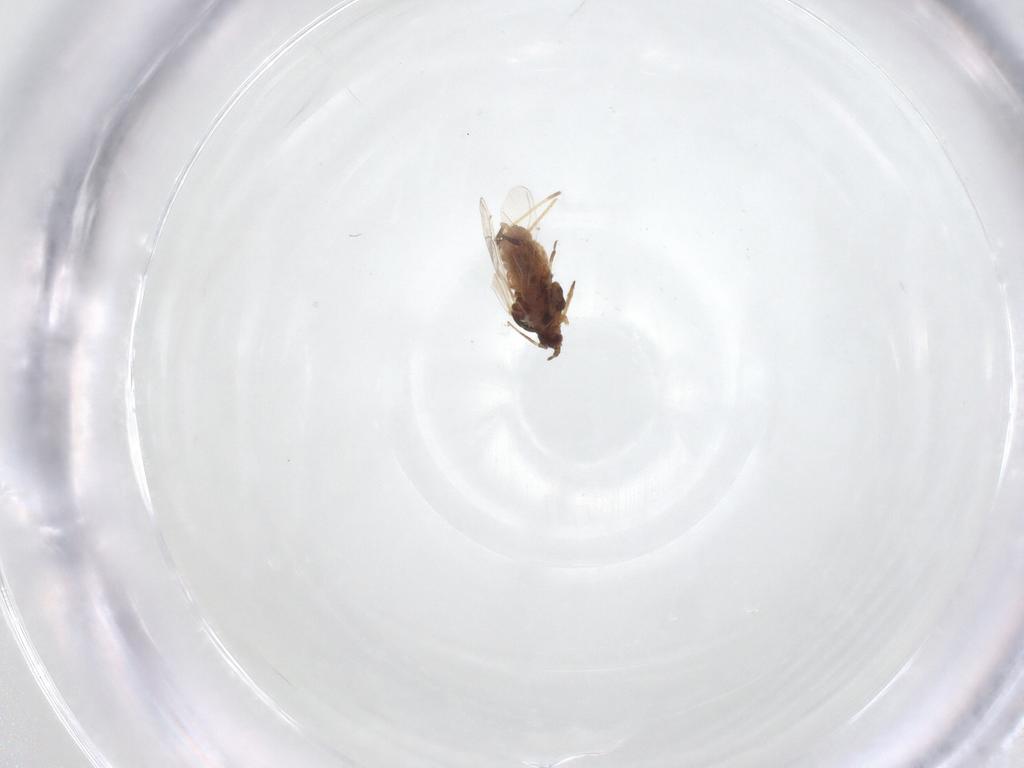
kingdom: Animalia
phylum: Arthropoda
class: Insecta
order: Hemiptera
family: Aphididae
